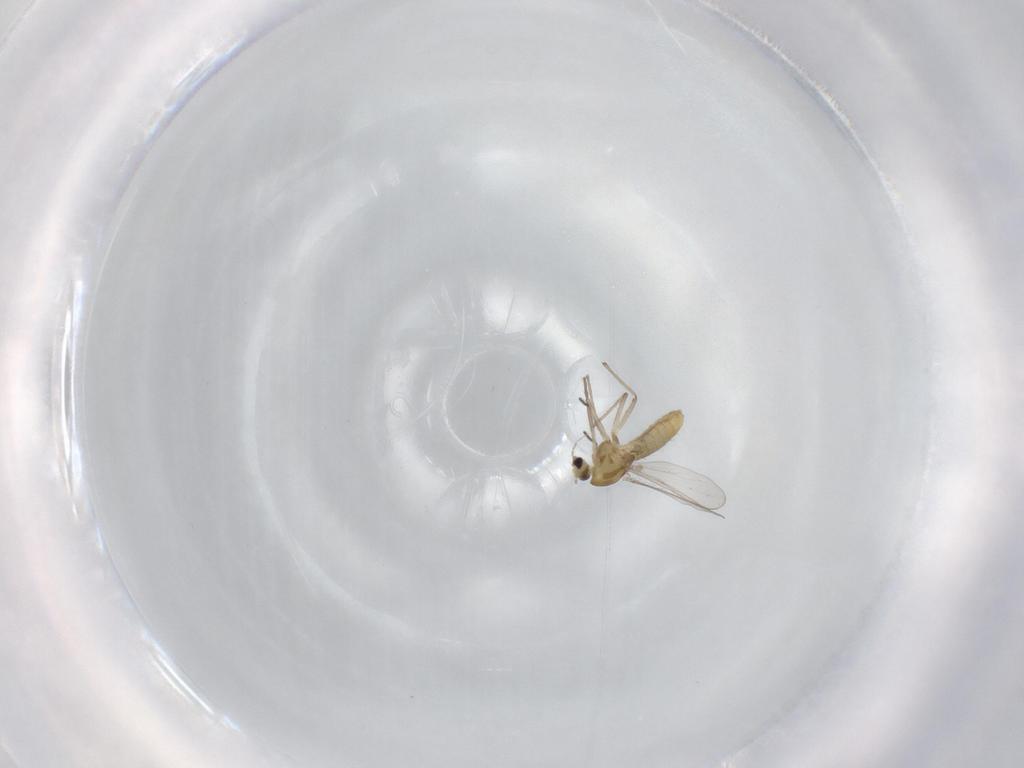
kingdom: Animalia
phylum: Arthropoda
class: Insecta
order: Diptera
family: Chironomidae
